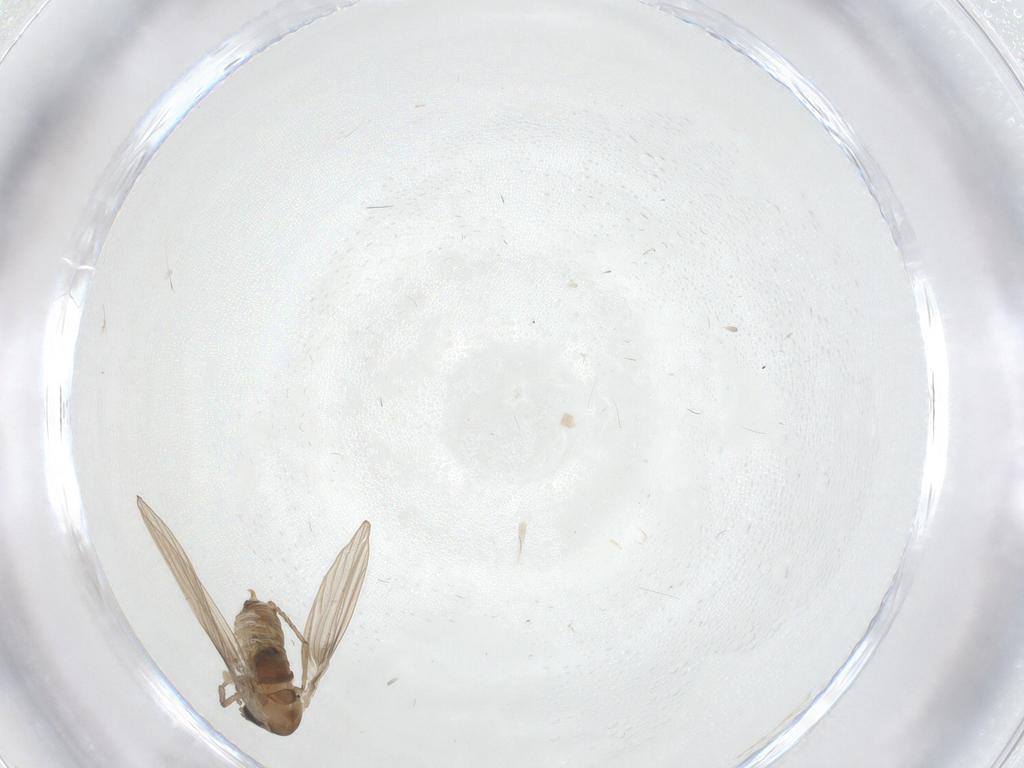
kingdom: Animalia
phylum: Arthropoda
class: Insecta
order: Diptera
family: Psychodidae
